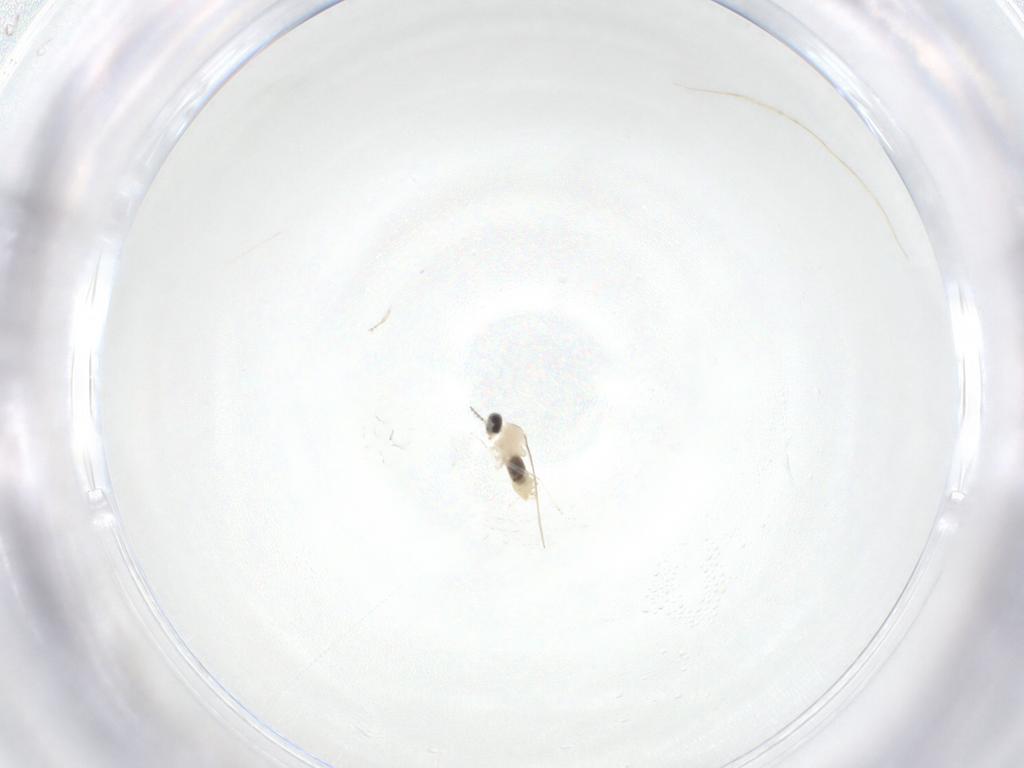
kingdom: Animalia
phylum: Arthropoda
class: Insecta
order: Diptera
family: Cecidomyiidae
